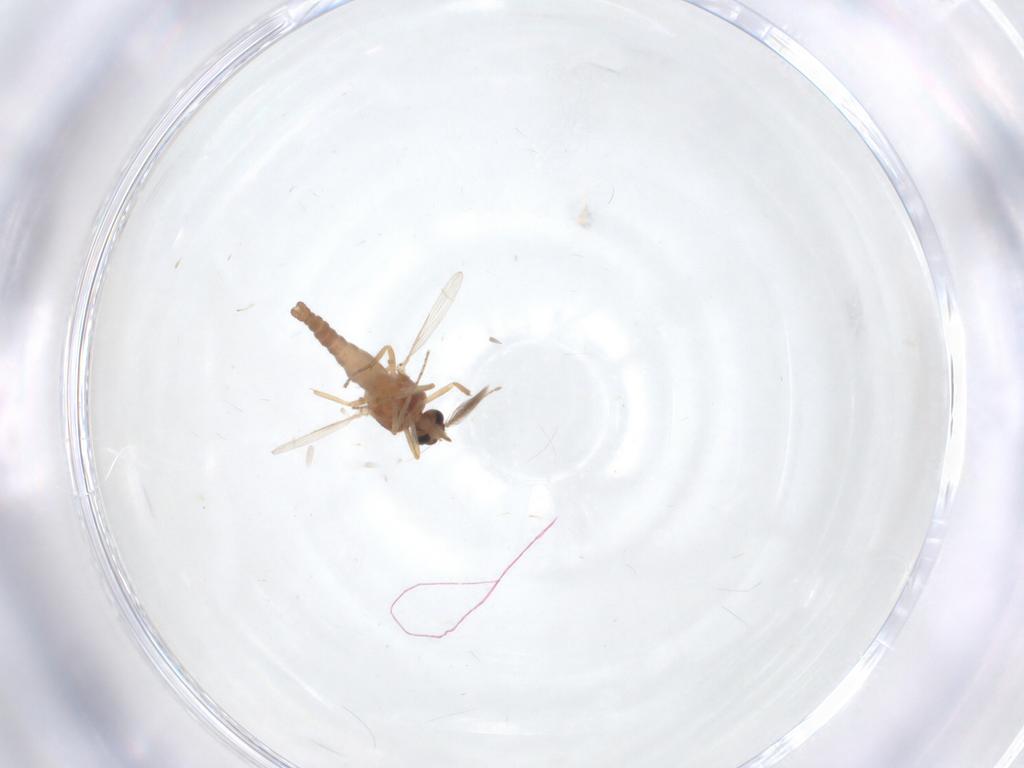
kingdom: Animalia
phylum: Arthropoda
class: Insecta
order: Diptera
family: Ceratopogonidae
